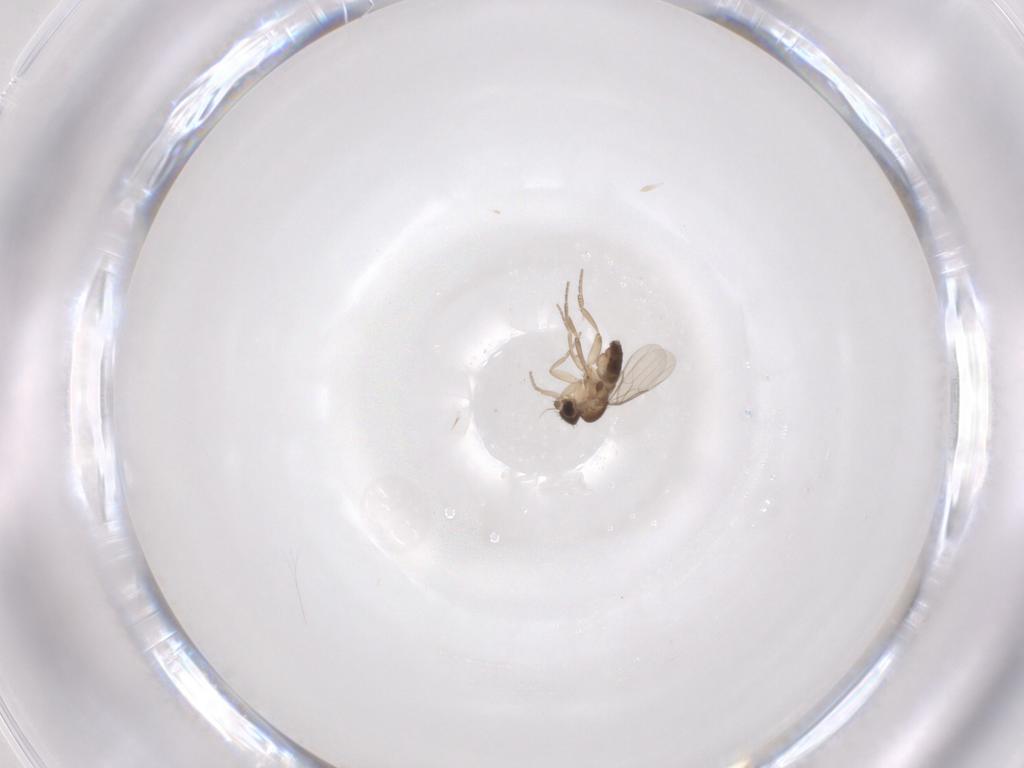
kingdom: Animalia
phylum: Arthropoda
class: Insecta
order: Diptera
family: Phoridae
